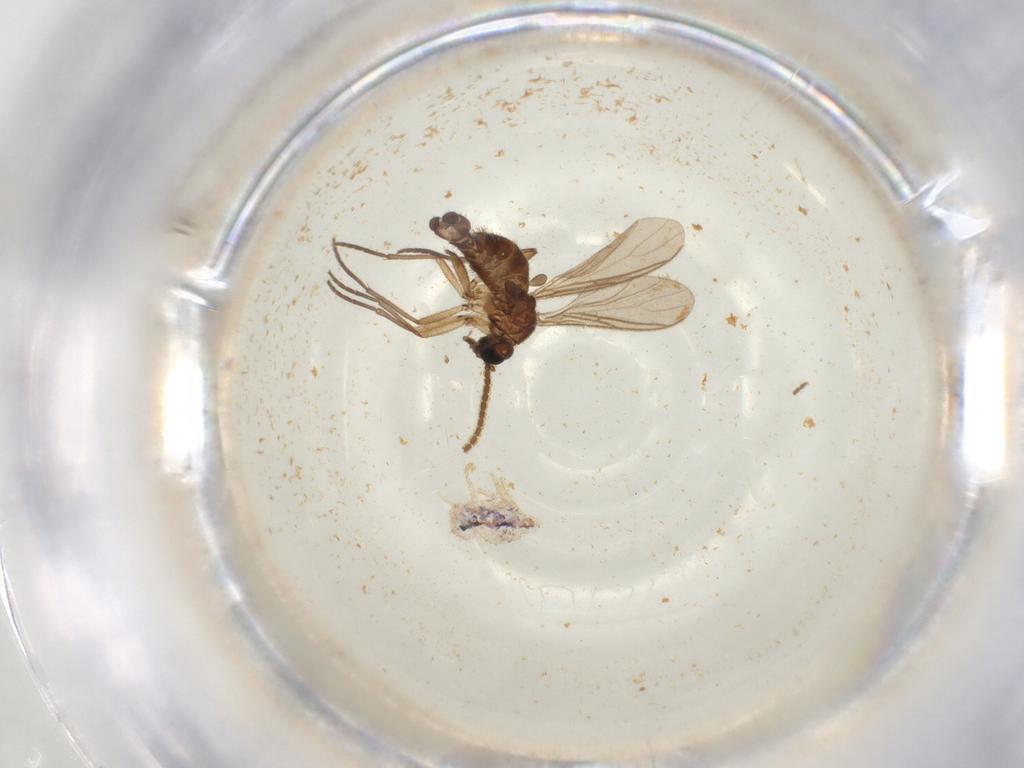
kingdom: Animalia
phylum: Arthropoda
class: Collembola
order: Symphypleona
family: Bourletiellidae
